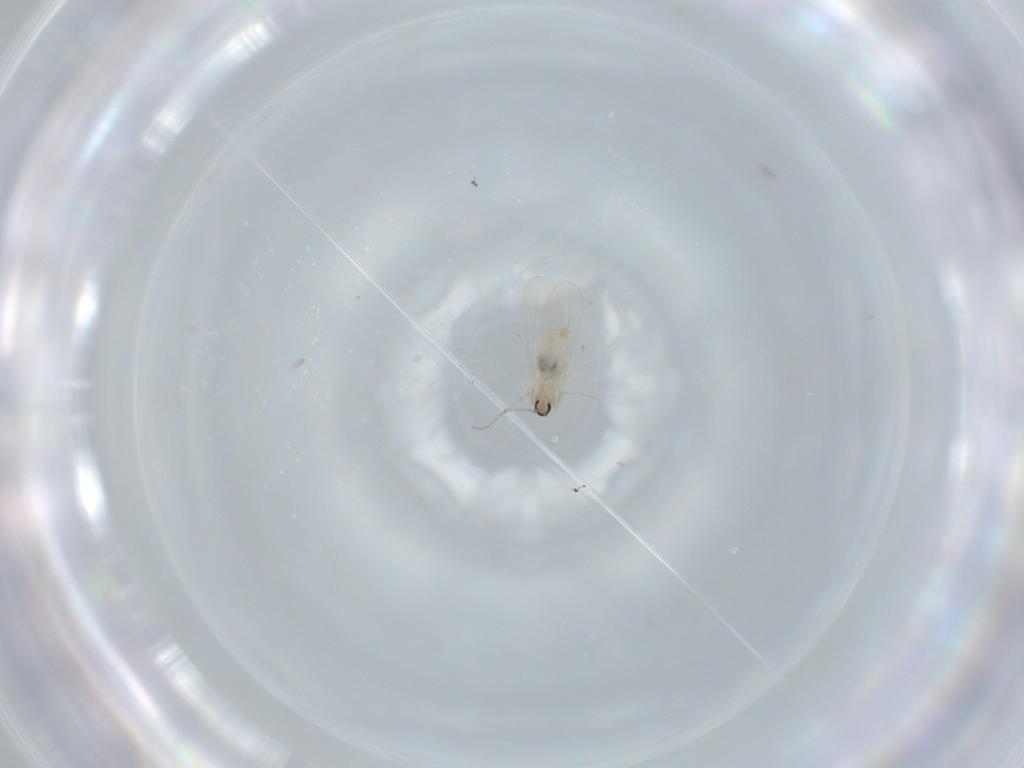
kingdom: Animalia
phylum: Arthropoda
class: Insecta
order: Diptera
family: Cecidomyiidae
